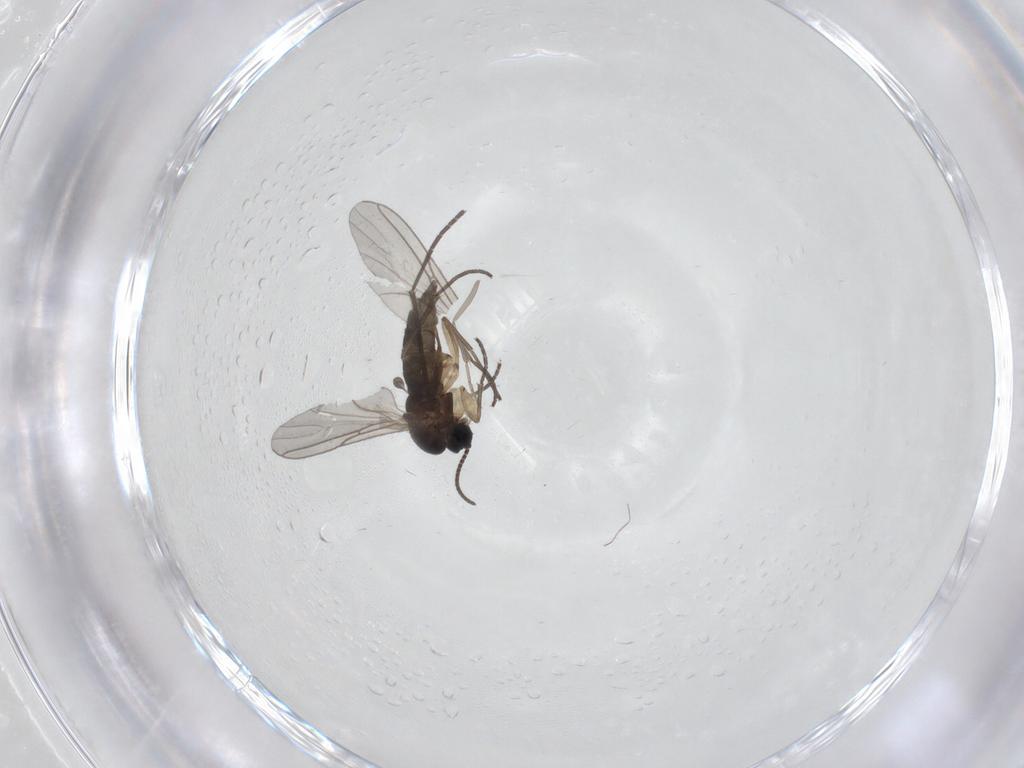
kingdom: Animalia
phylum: Arthropoda
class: Insecta
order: Diptera
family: Sciaridae
